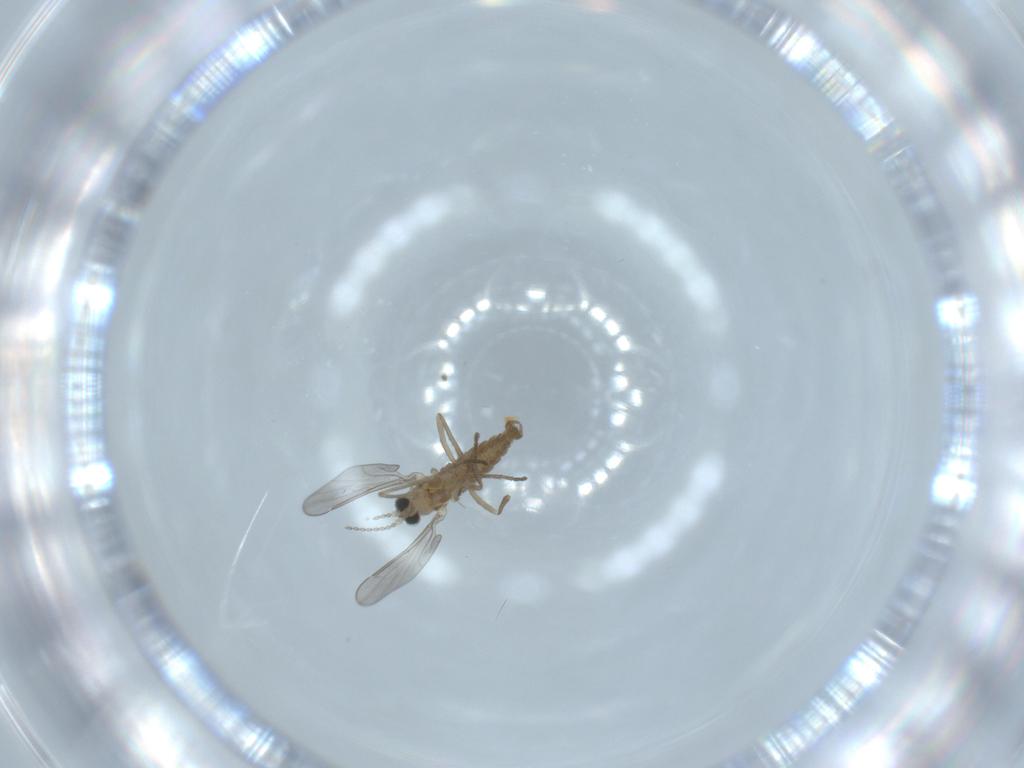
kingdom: Animalia
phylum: Arthropoda
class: Insecta
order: Diptera
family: Sciaridae
